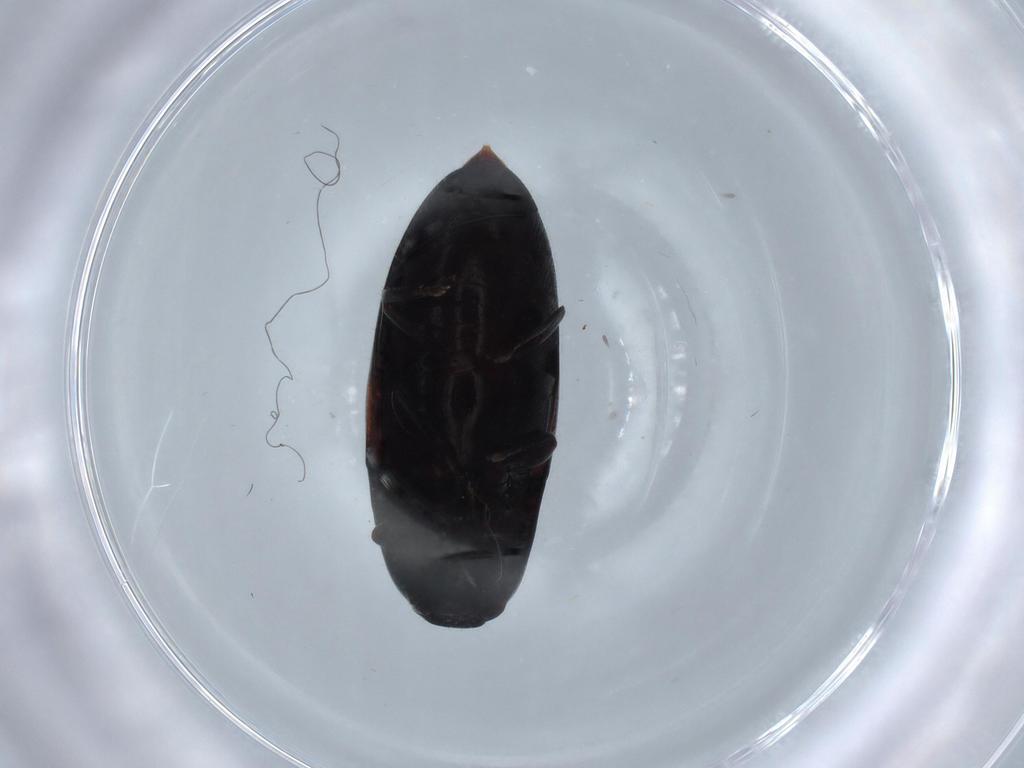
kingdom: Animalia
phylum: Arthropoda
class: Insecta
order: Coleoptera
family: Elateridae
